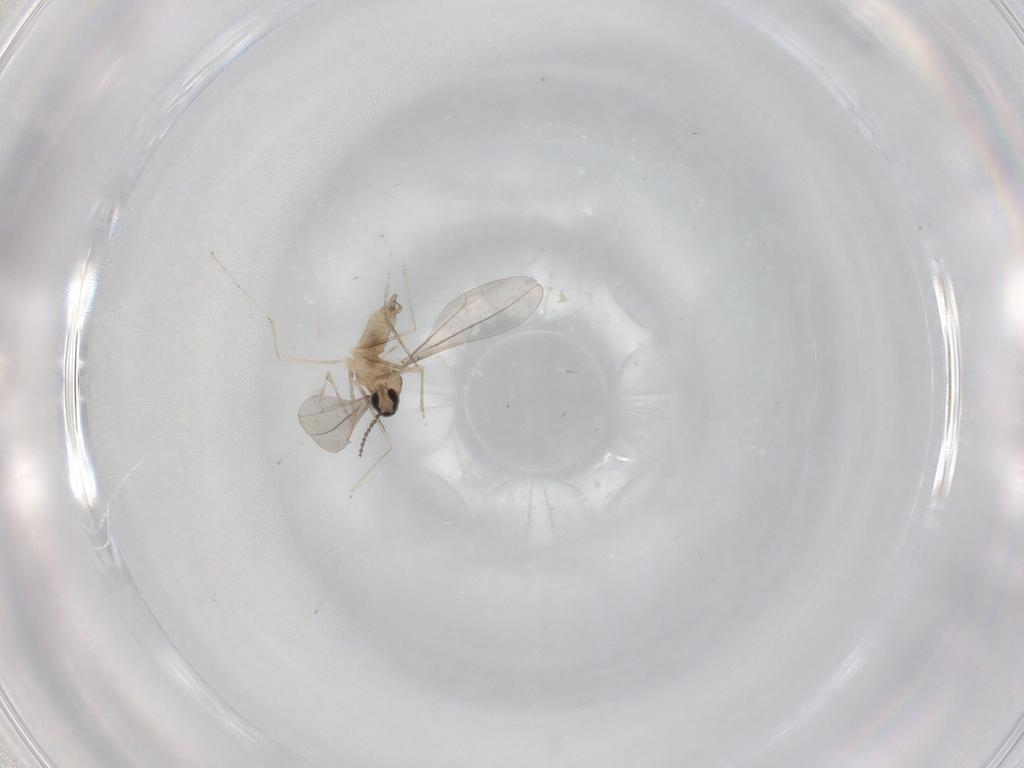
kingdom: Animalia
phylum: Arthropoda
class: Insecta
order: Diptera
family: Cecidomyiidae
